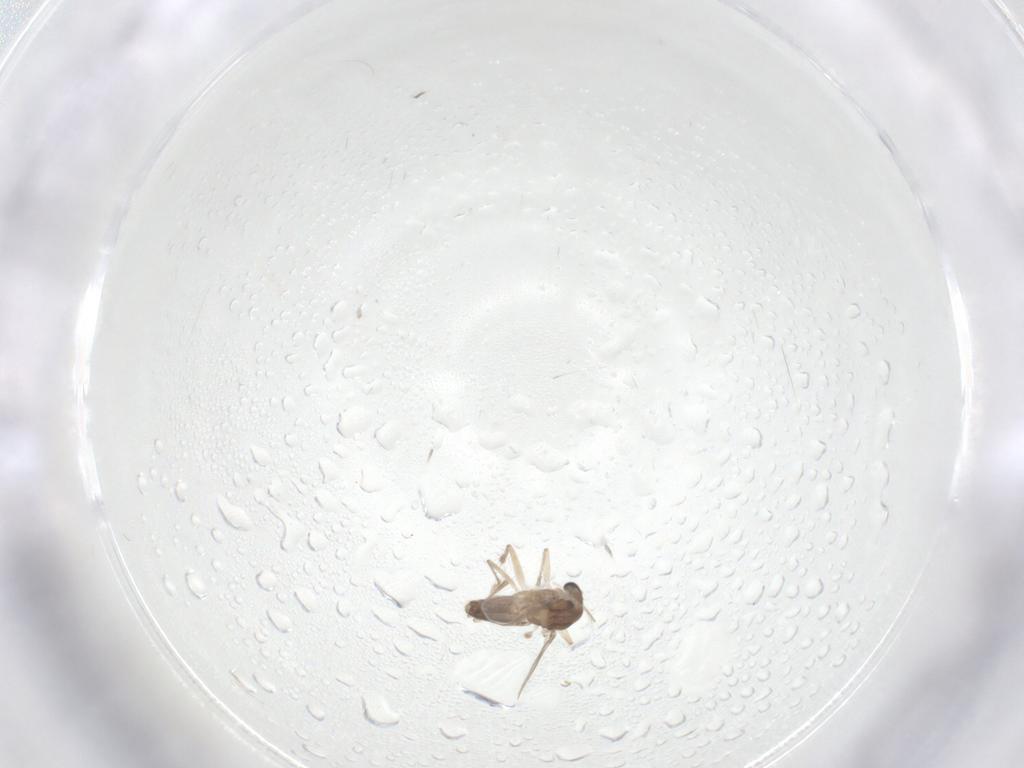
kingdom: Animalia
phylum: Arthropoda
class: Insecta
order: Diptera
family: Chironomidae
